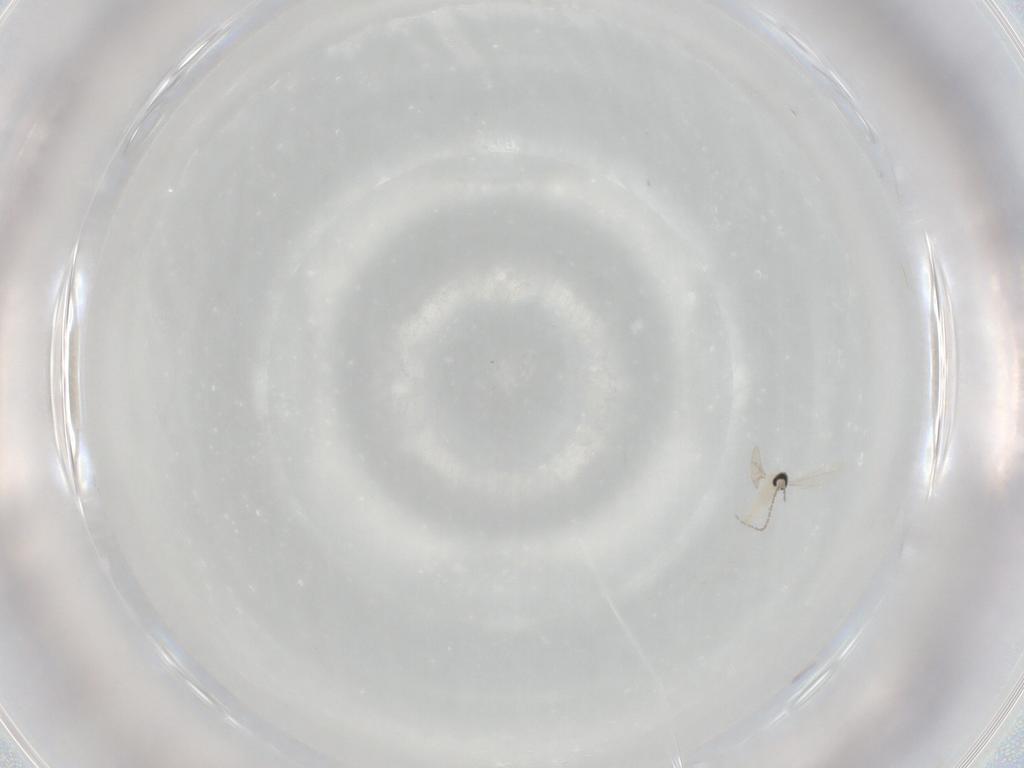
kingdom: Animalia
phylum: Arthropoda
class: Insecta
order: Diptera
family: Cecidomyiidae
